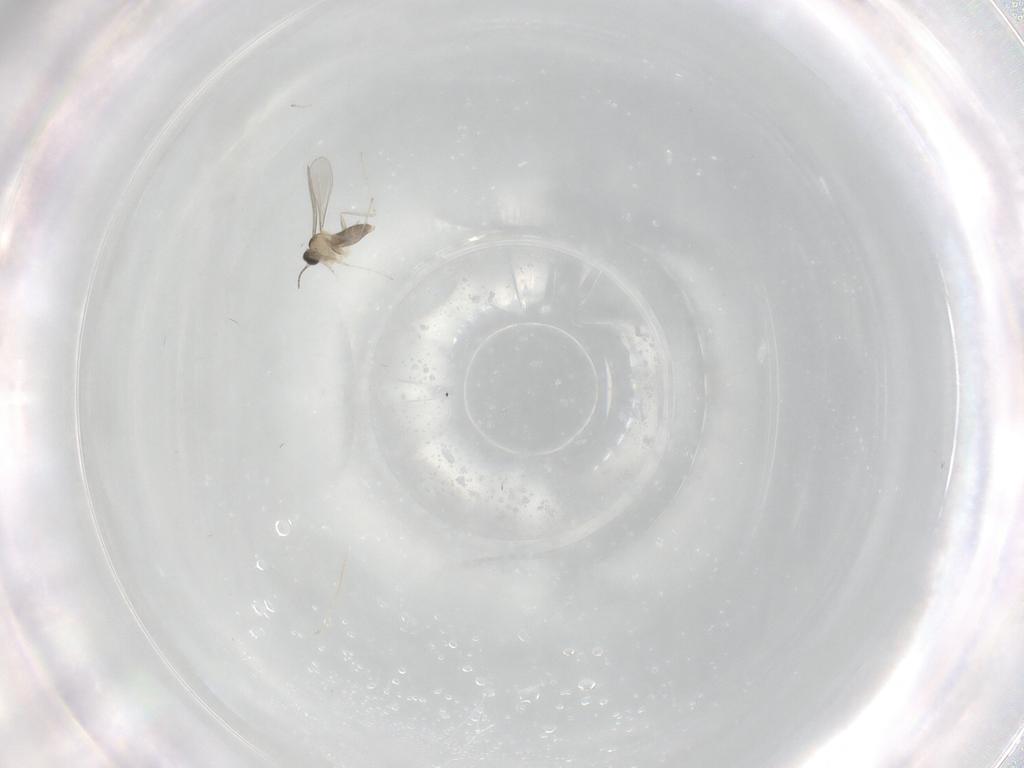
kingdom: Animalia
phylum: Arthropoda
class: Insecta
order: Diptera
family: Phoridae
